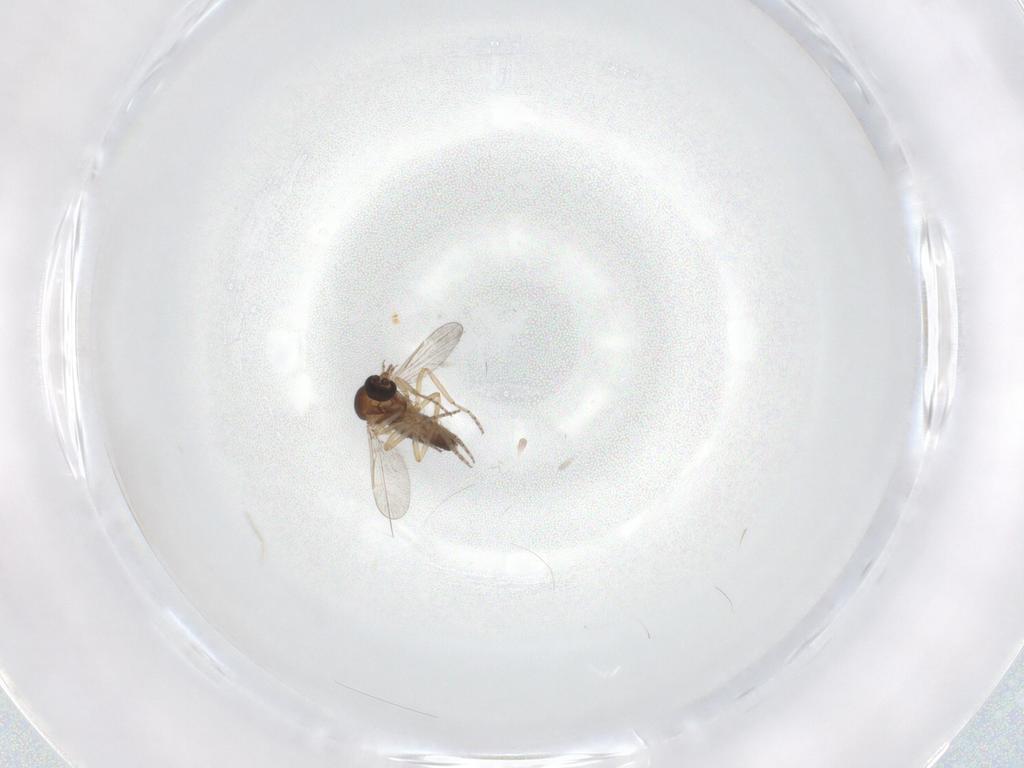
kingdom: Animalia
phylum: Arthropoda
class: Insecta
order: Diptera
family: Ceratopogonidae
